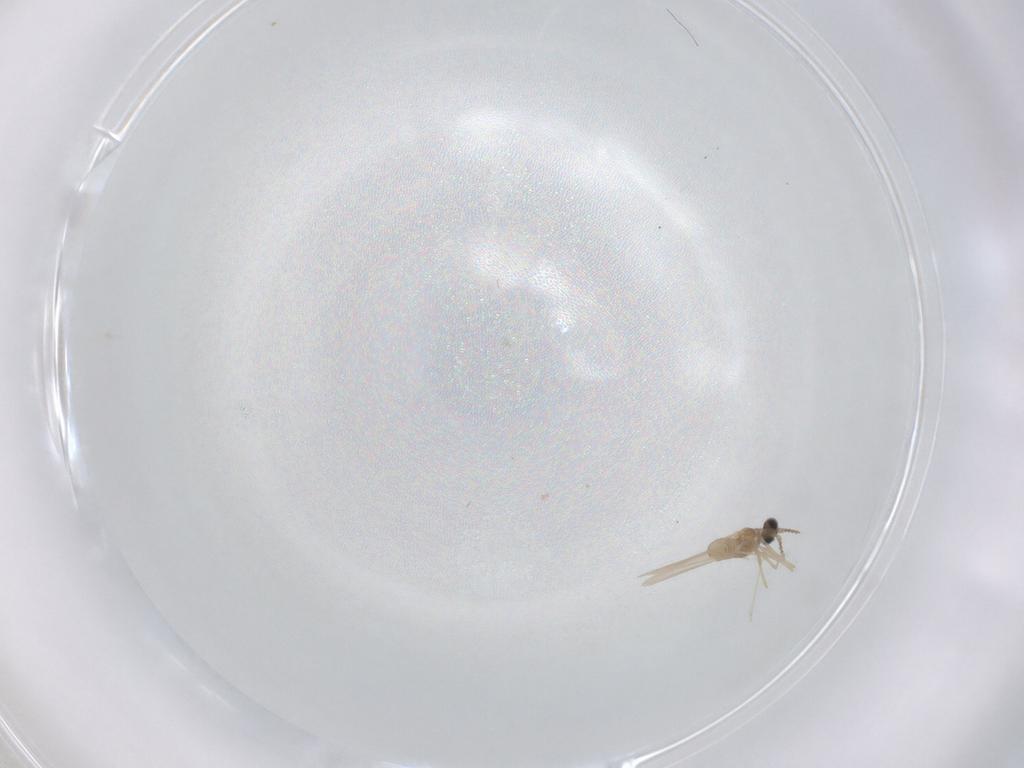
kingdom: Animalia
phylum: Arthropoda
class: Insecta
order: Diptera
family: Cecidomyiidae
